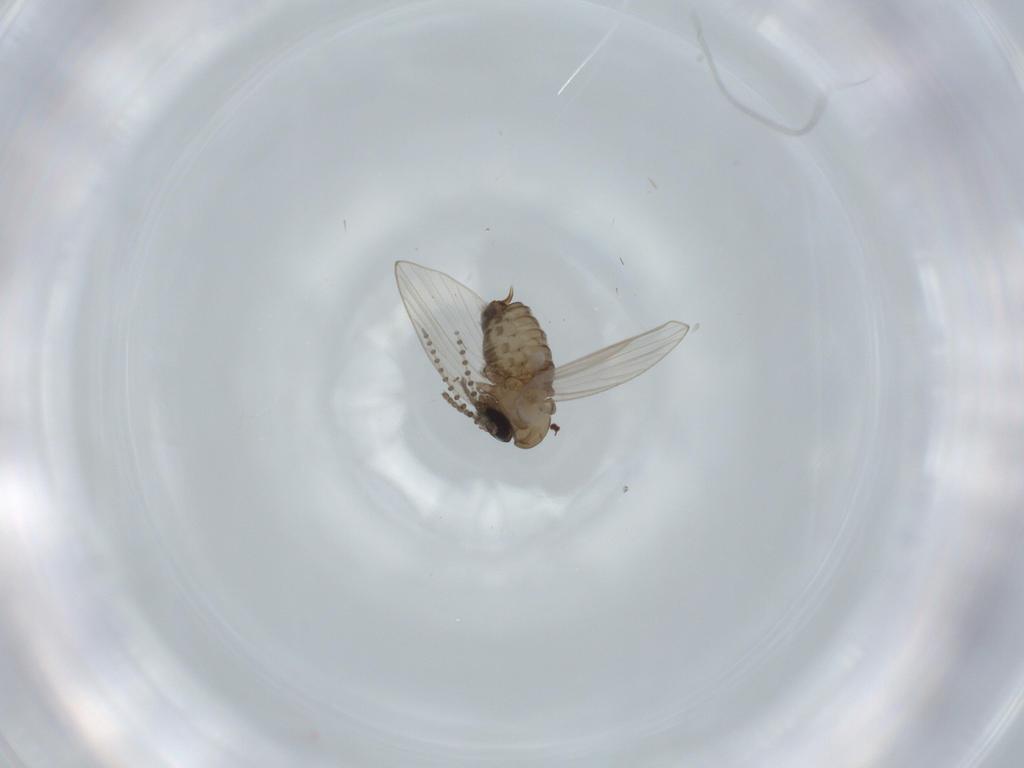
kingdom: Animalia
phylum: Arthropoda
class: Insecta
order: Diptera
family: Psychodidae
